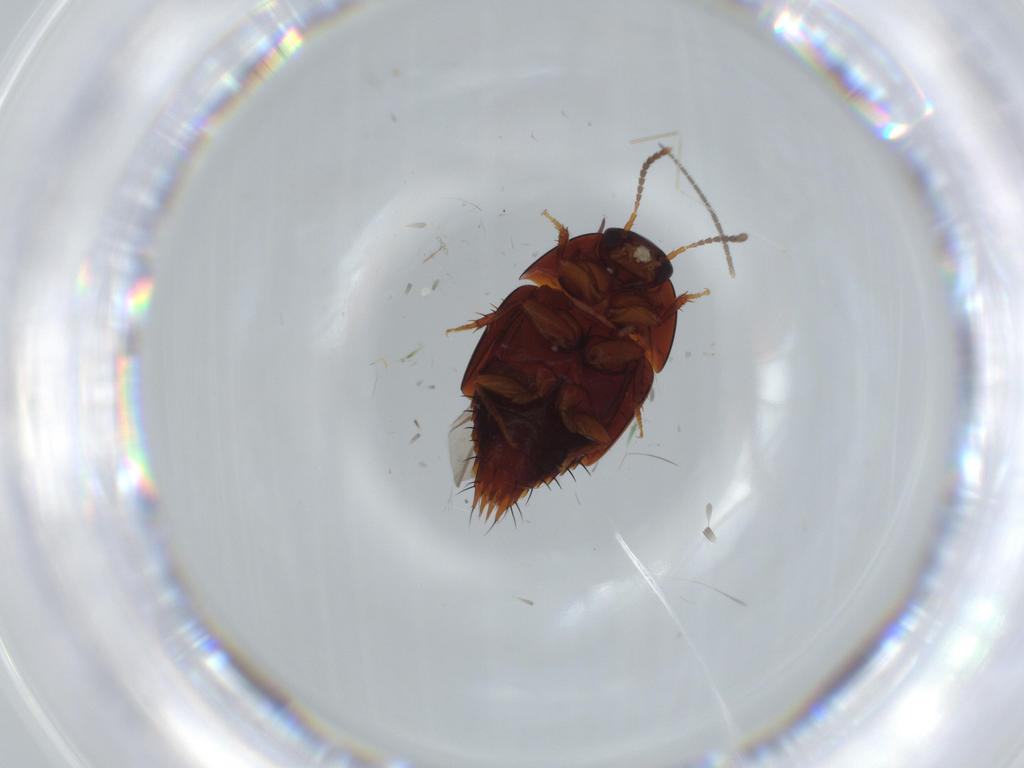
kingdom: Animalia
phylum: Arthropoda
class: Insecta
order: Coleoptera
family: Staphylinidae
